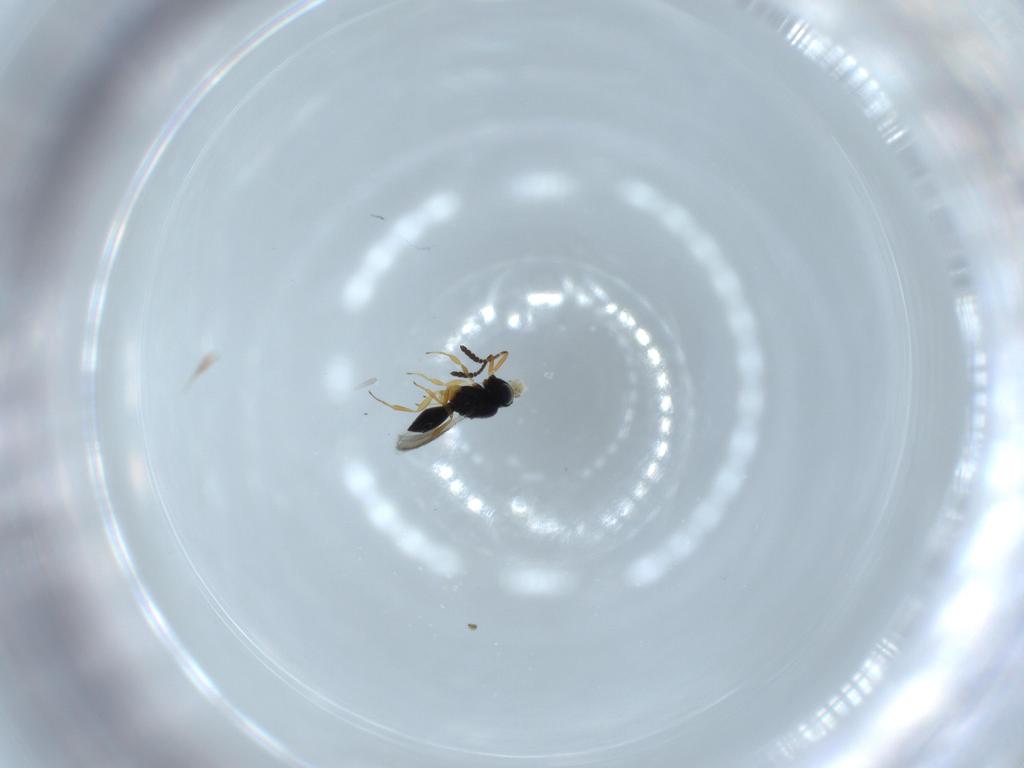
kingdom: Animalia
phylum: Arthropoda
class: Insecta
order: Hymenoptera
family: Scelionidae
